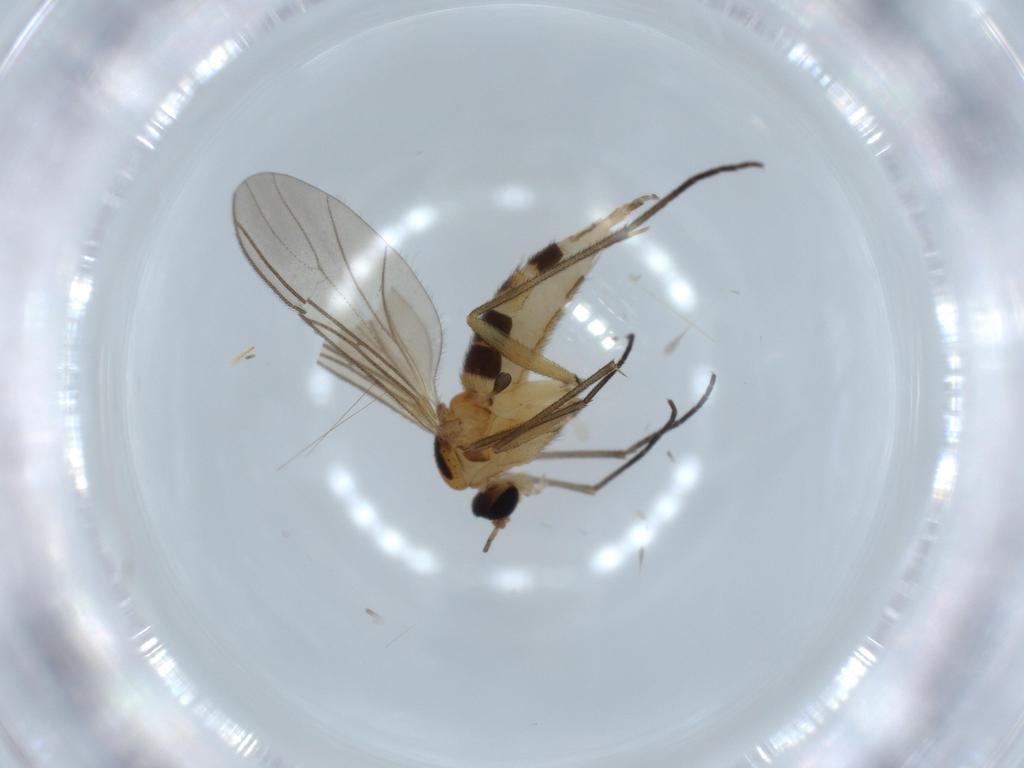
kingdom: Animalia
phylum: Arthropoda
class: Insecta
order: Diptera
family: Sciaridae
